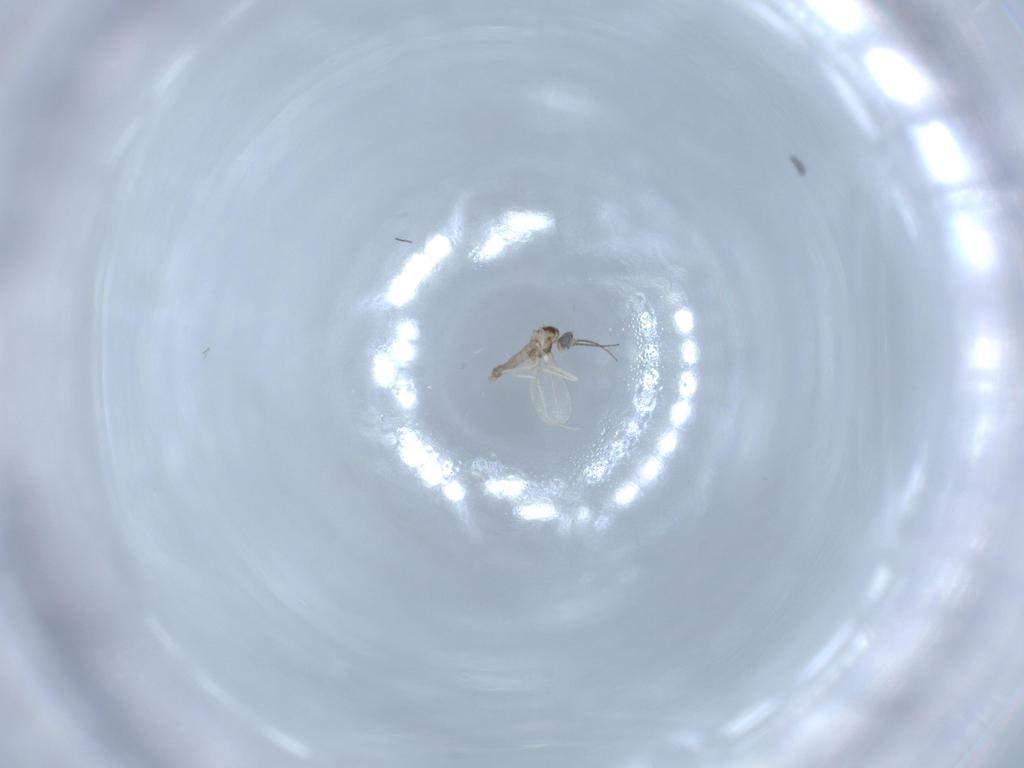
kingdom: Animalia
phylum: Arthropoda
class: Insecta
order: Diptera
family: Cecidomyiidae
